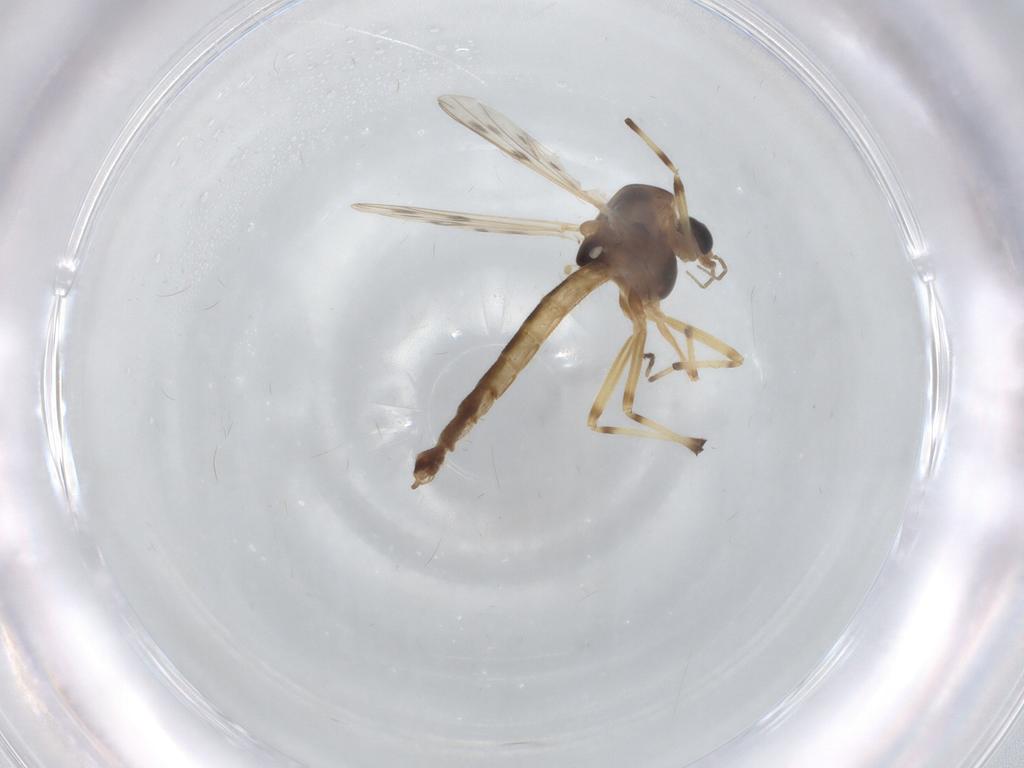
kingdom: Animalia
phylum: Arthropoda
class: Insecta
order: Diptera
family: Chironomidae
